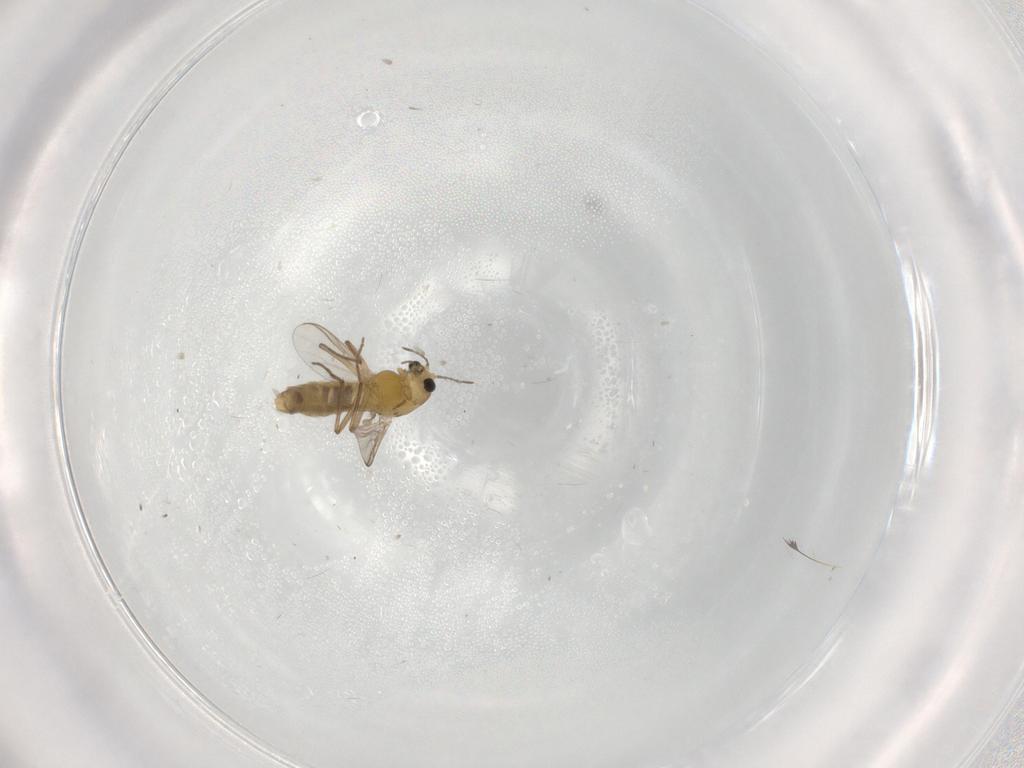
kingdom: Animalia
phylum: Arthropoda
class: Insecta
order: Diptera
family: Chironomidae
